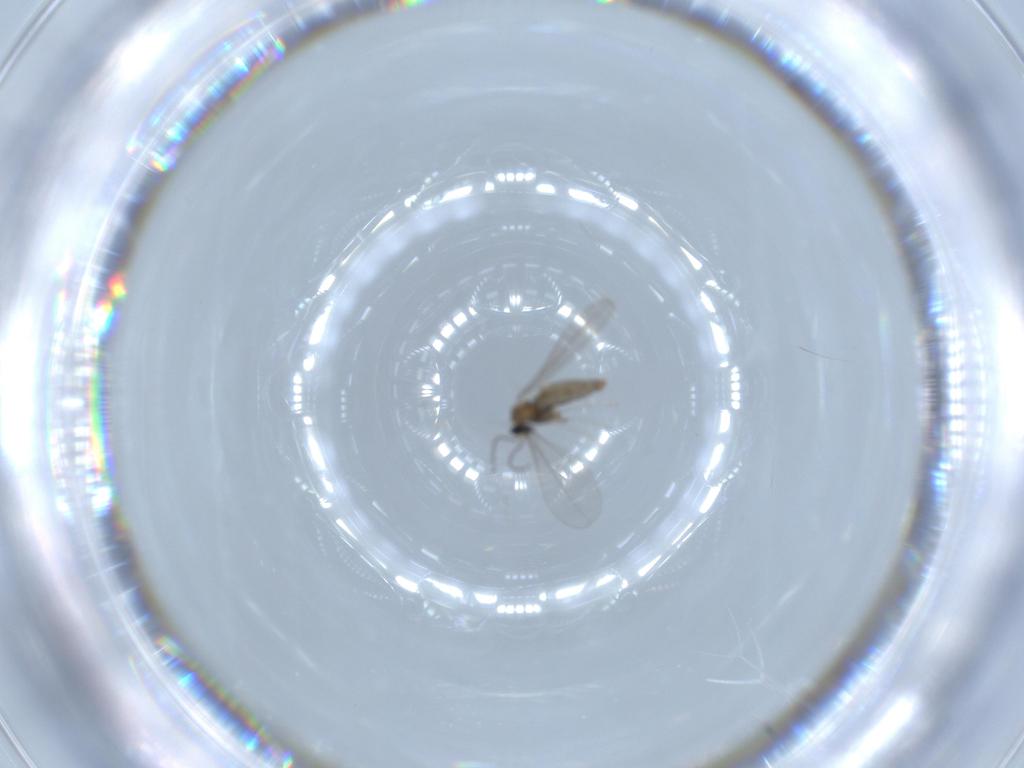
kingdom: Animalia
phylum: Arthropoda
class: Insecta
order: Diptera
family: Cecidomyiidae
